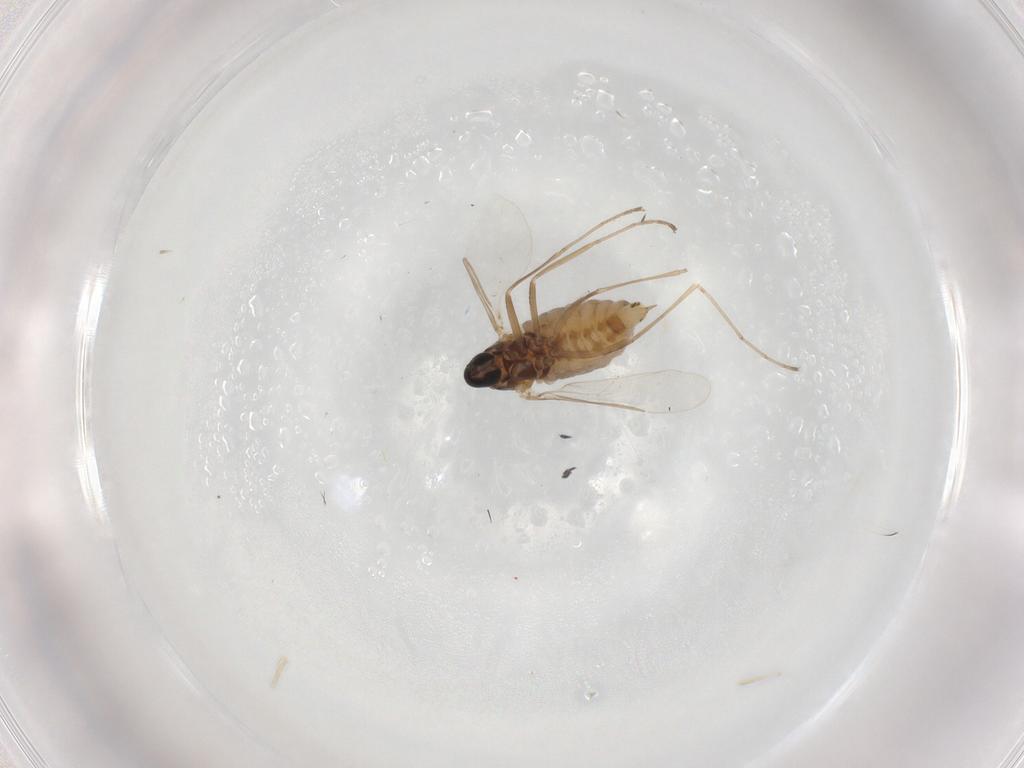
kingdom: Animalia
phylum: Arthropoda
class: Insecta
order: Diptera
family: Cecidomyiidae
